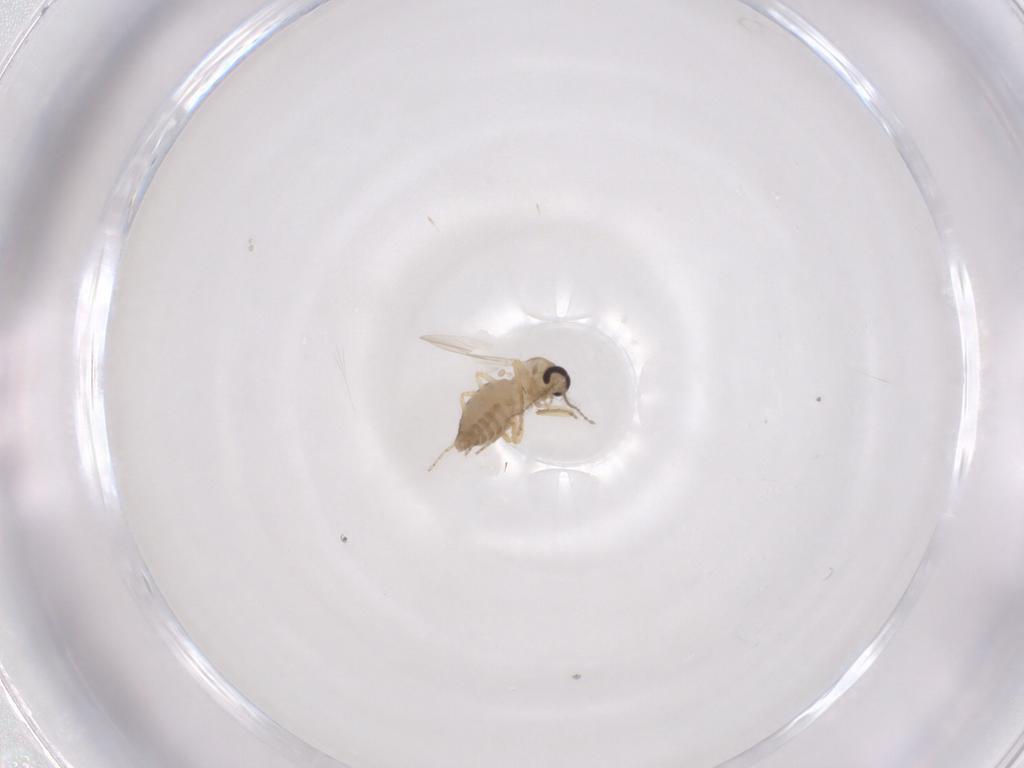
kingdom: Animalia
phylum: Arthropoda
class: Insecta
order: Diptera
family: Ceratopogonidae
